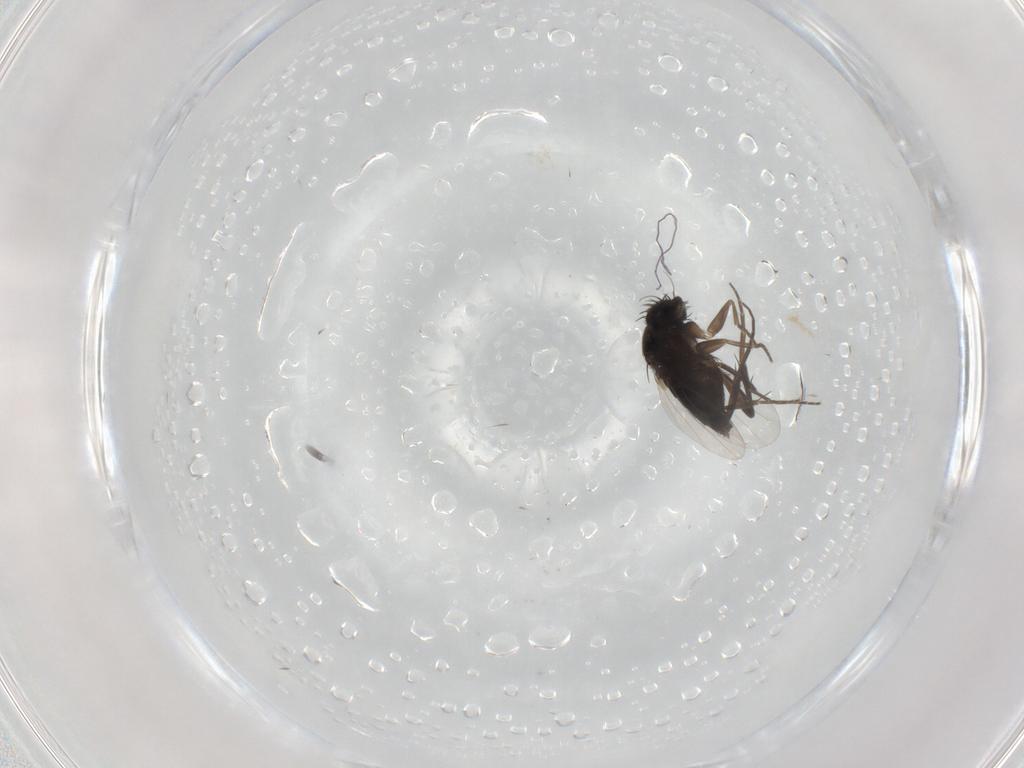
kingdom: Animalia
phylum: Arthropoda
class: Insecta
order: Diptera
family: Phoridae
